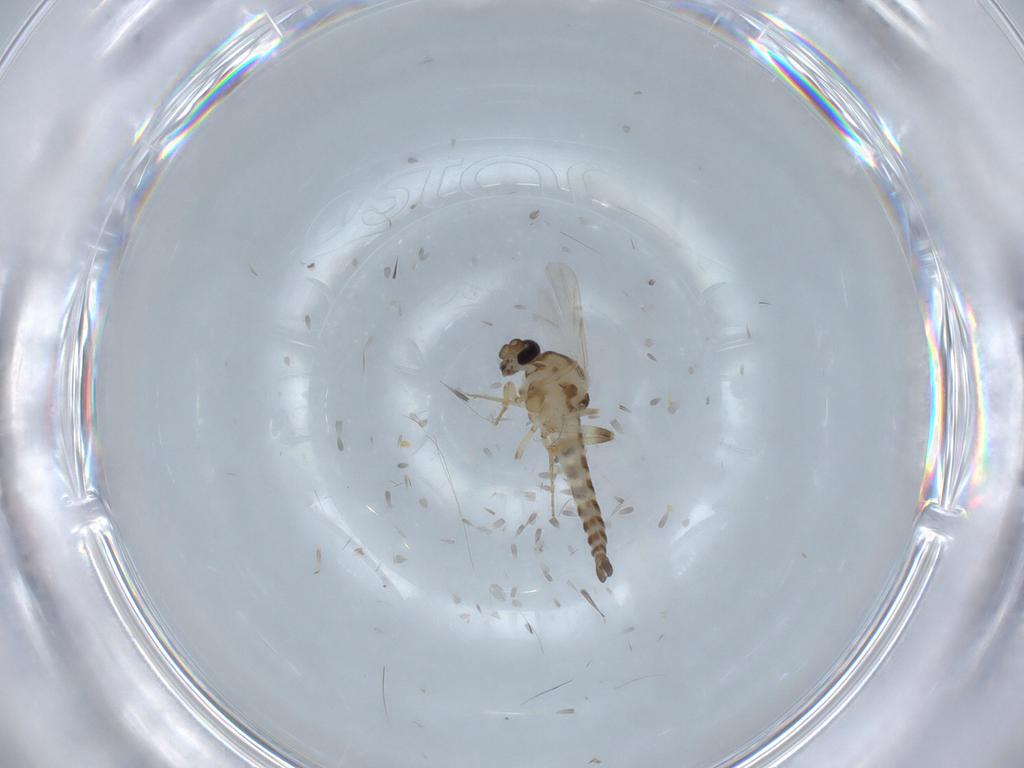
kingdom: Animalia
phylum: Arthropoda
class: Insecta
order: Diptera
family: Ceratopogonidae
